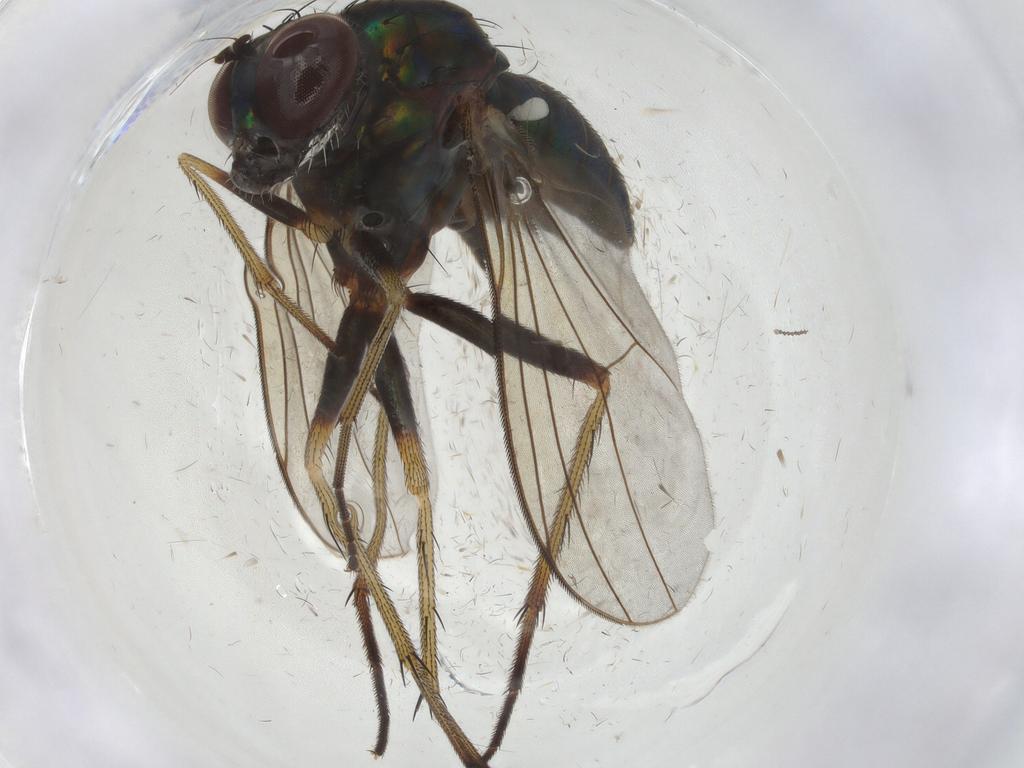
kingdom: Animalia
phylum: Arthropoda
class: Insecta
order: Diptera
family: Dolichopodidae
